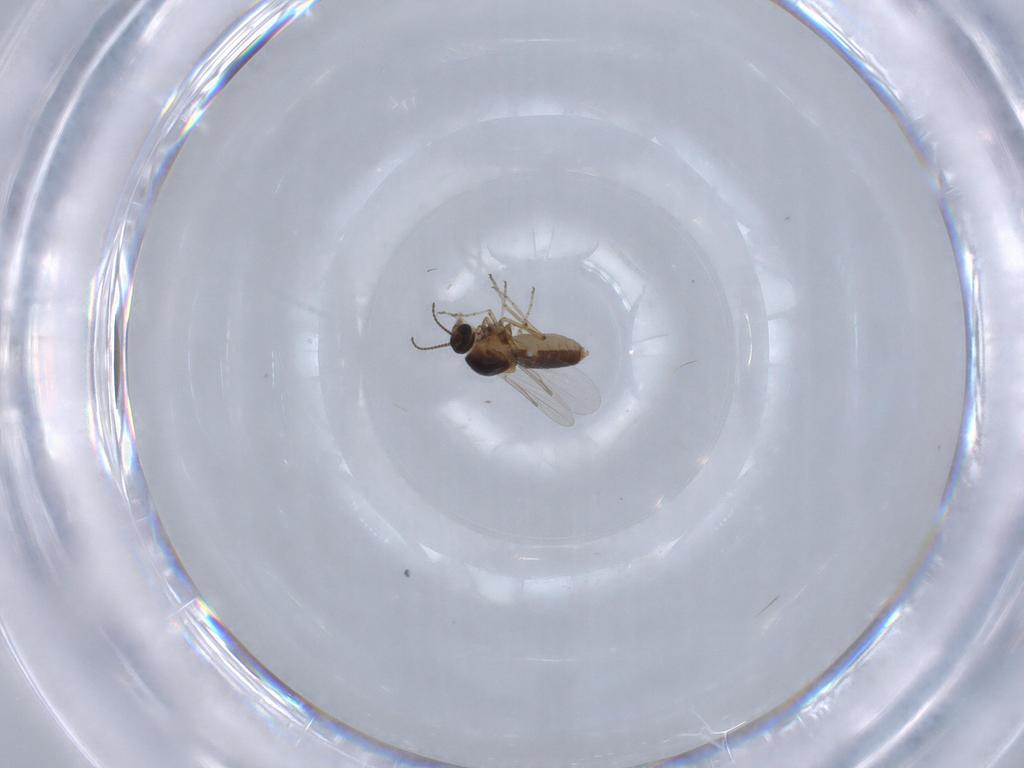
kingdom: Animalia
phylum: Arthropoda
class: Insecta
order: Diptera
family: Ceratopogonidae
